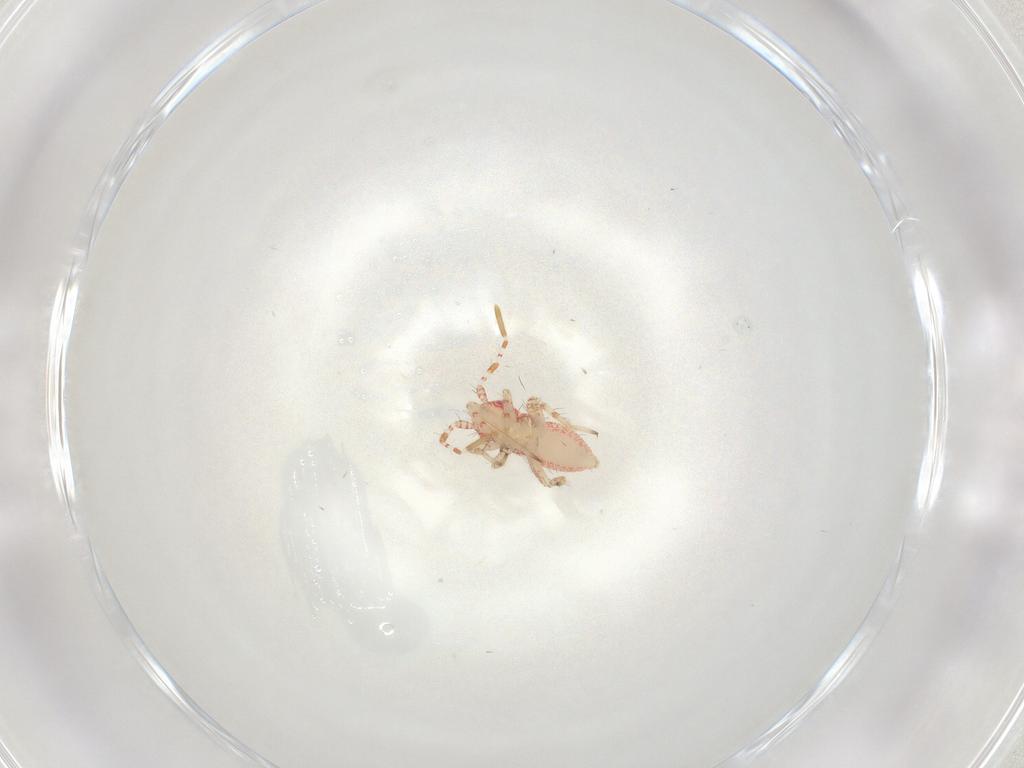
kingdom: Animalia
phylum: Arthropoda
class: Insecta
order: Hemiptera
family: Miridae
